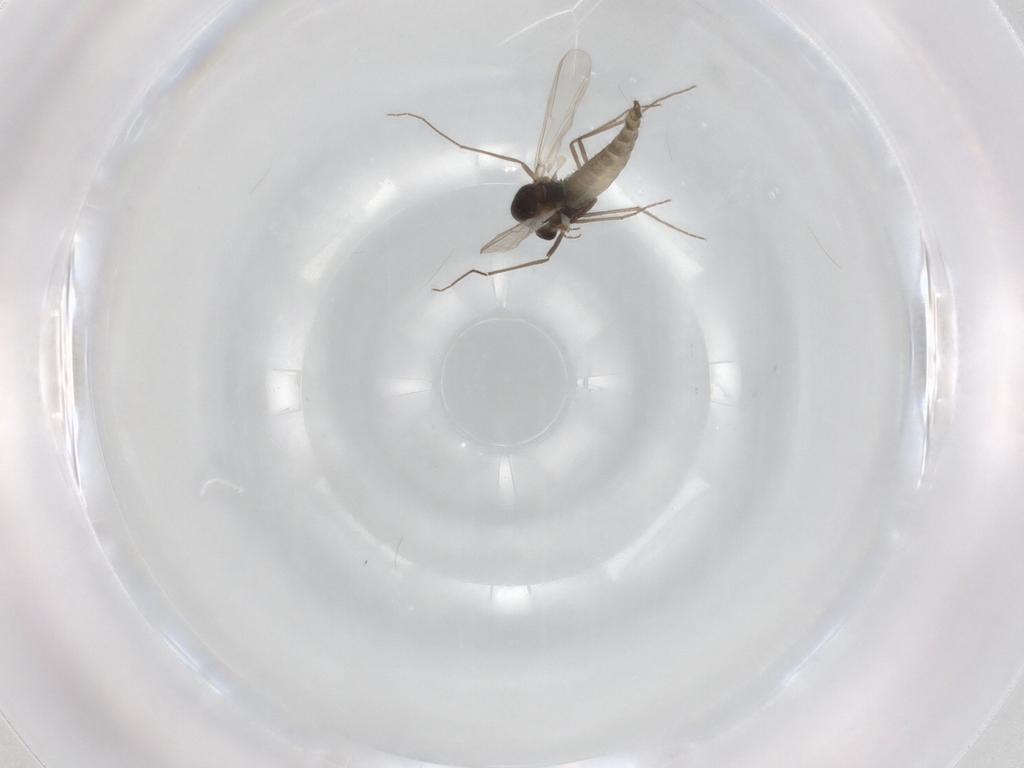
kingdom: Animalia
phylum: Arthropoda
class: Insecta
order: Diptera
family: Chironomidae
